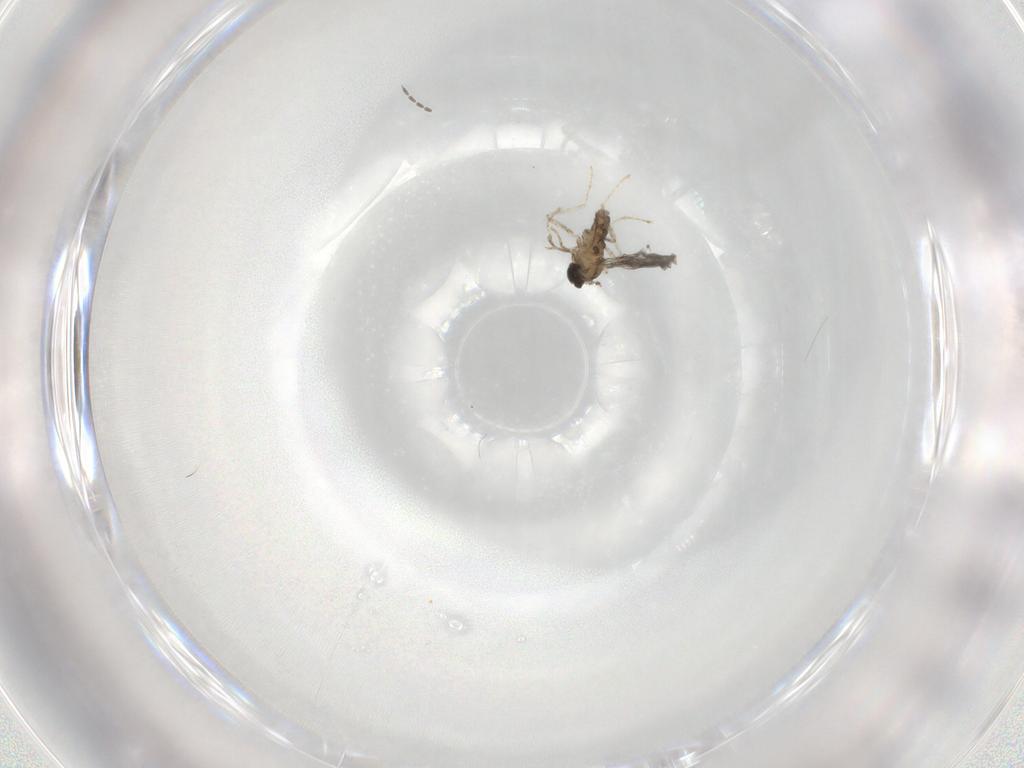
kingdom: Animalia
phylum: Arthropoda
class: Insecta
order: Diptera
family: Cecidomyiidae
